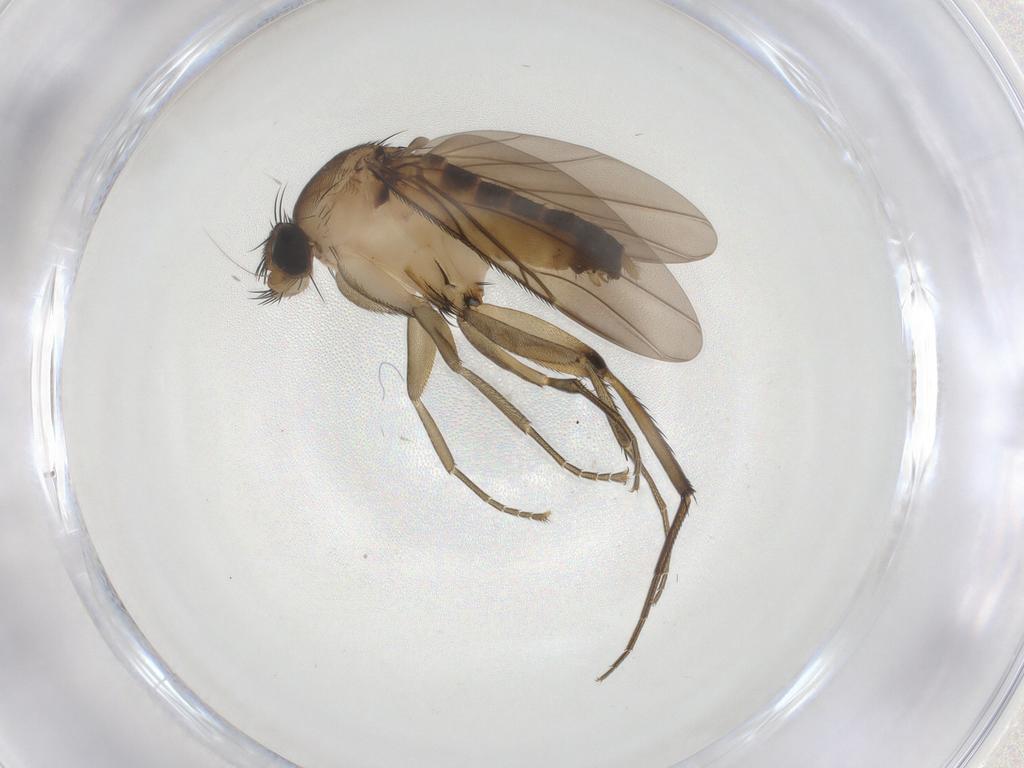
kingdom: Animalia
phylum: Arthropoda
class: Insecta
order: Diptera
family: Phoridae
